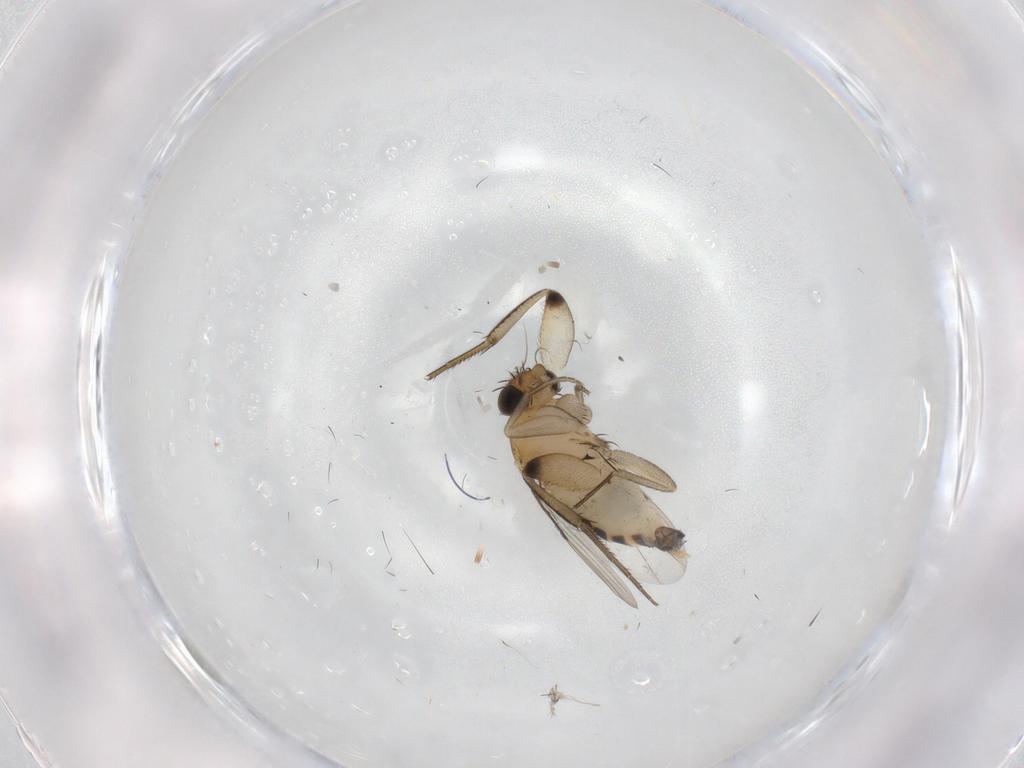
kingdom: Animalia
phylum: Arthropoda
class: Insecta
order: Diptera
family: Phoridae
